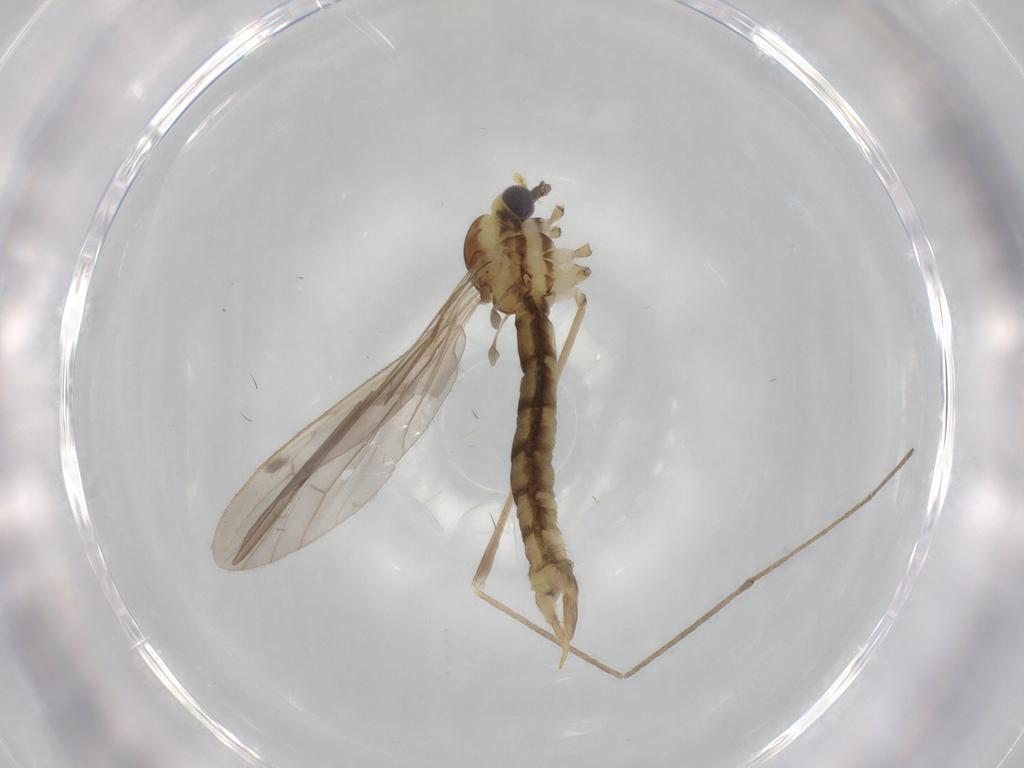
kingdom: Animalia
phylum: Arthropoda
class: Insecta
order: Diptera
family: Limoniidae
